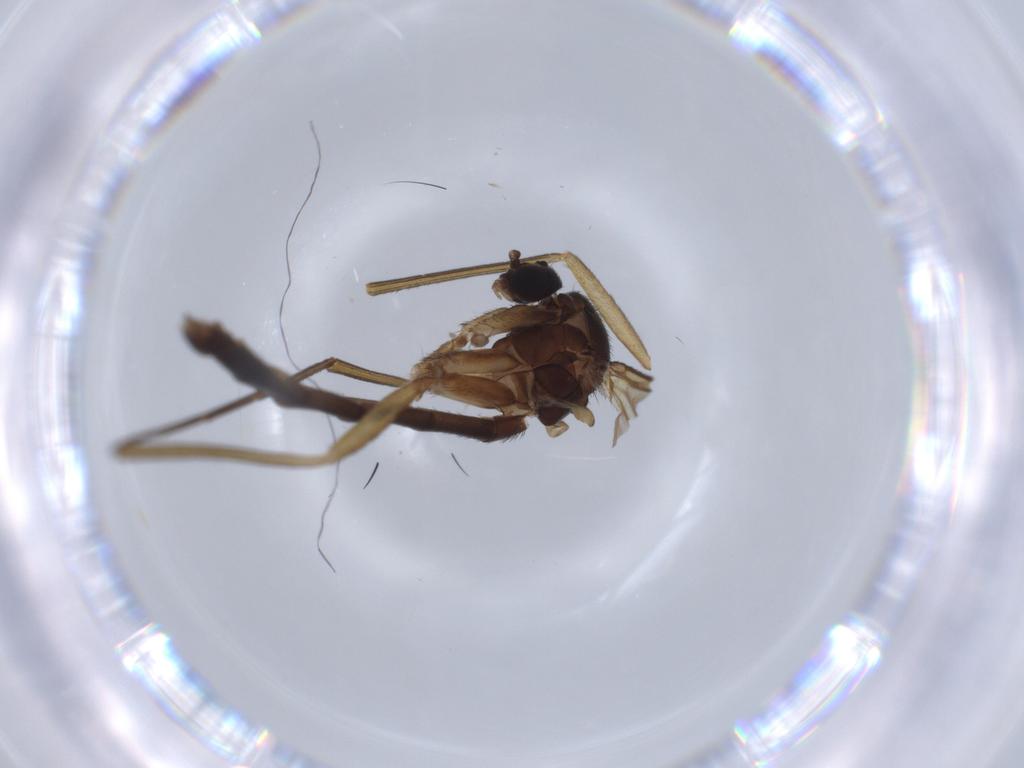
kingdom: Animalia
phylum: Arthropoda
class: Insecta
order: Diptera
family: Keroplatidae
